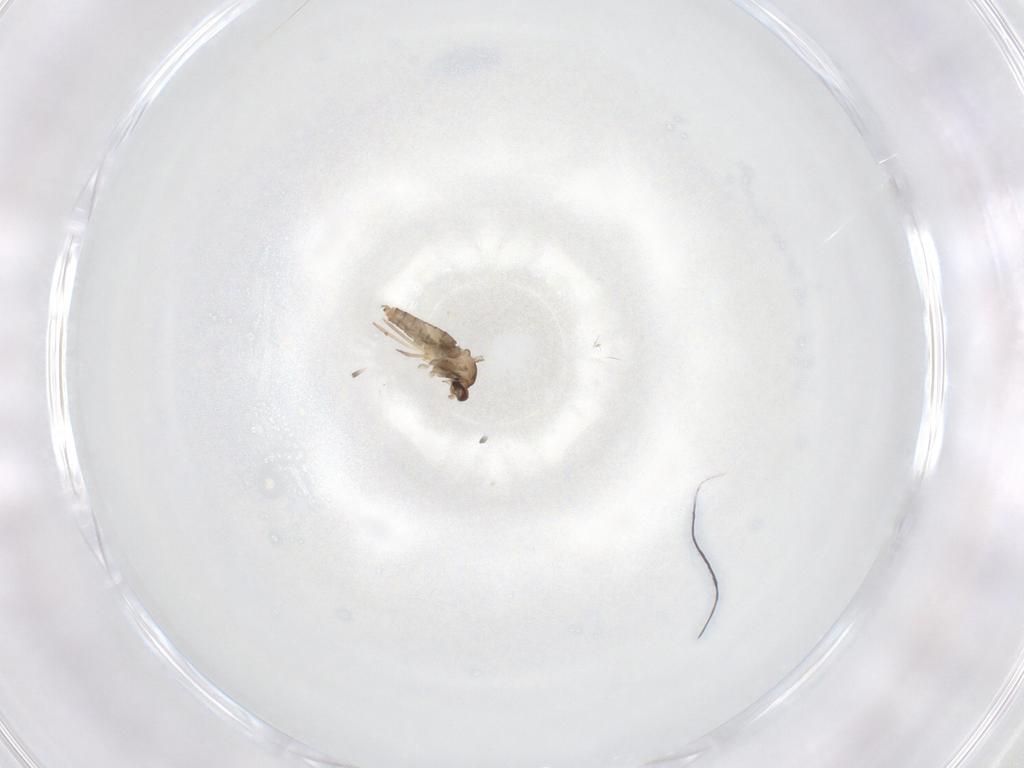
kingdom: Animalia
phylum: Arthropoda
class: Insecta
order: Diptera
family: Cecidomyiidae
